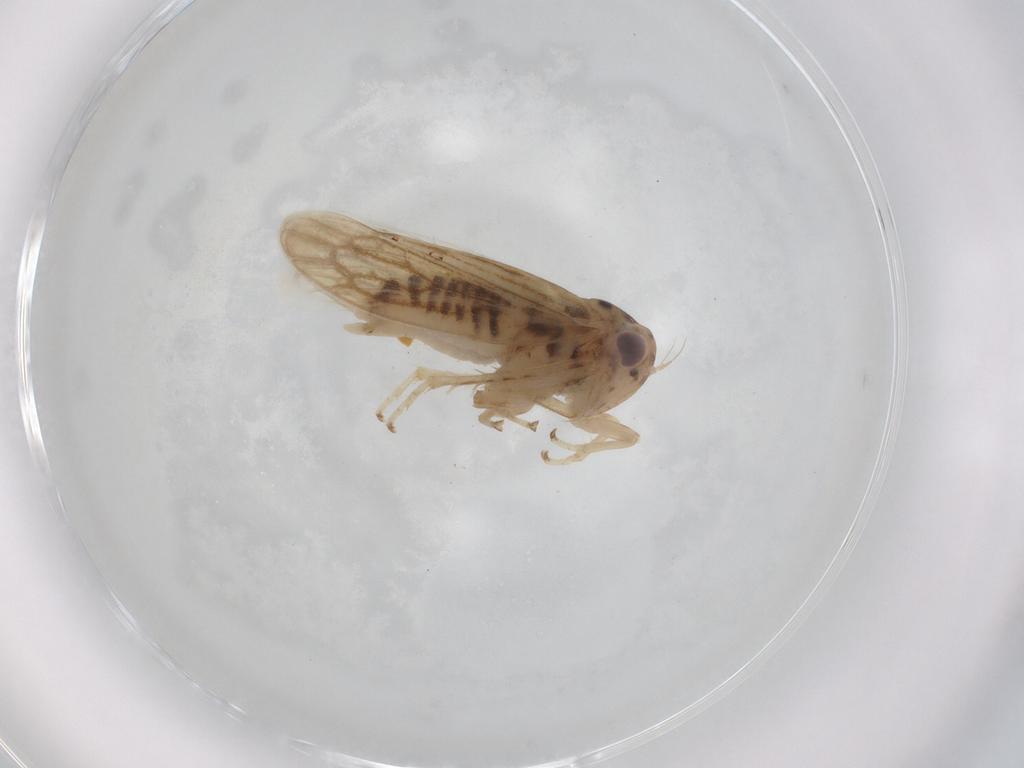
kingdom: Animalia
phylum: Arthropoda
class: Insecta
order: Hemiptera
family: Cicadellidae
